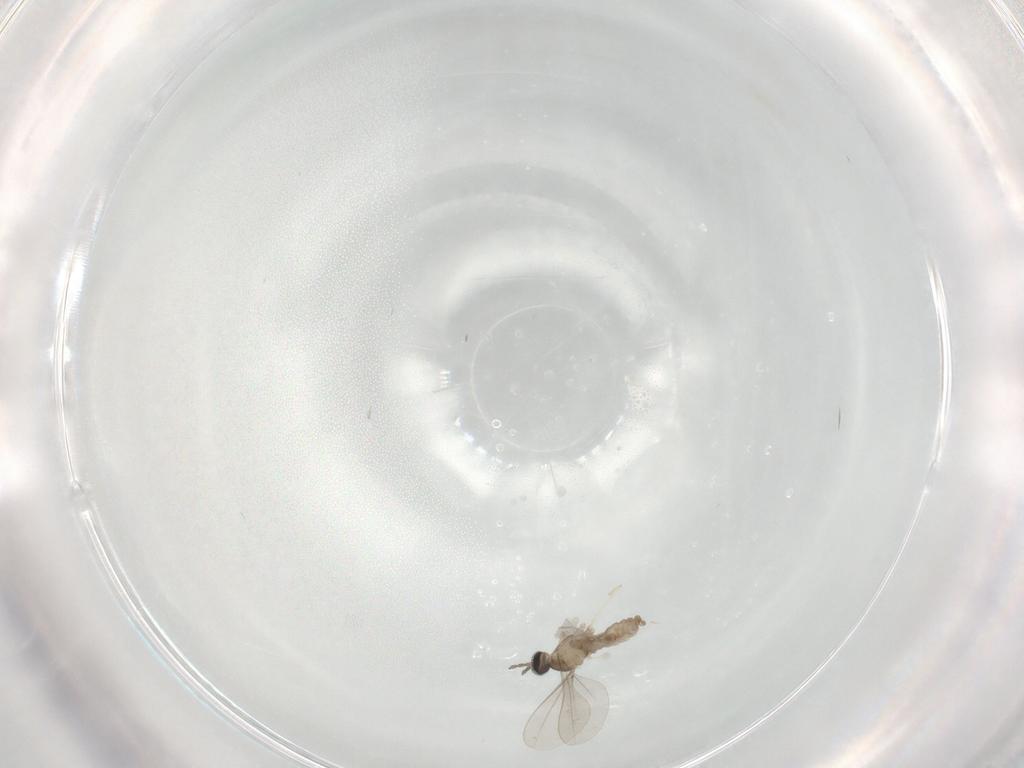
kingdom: Animalia
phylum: Arthropoda
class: Insecta
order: Diptera
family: Cecidomyiidae
